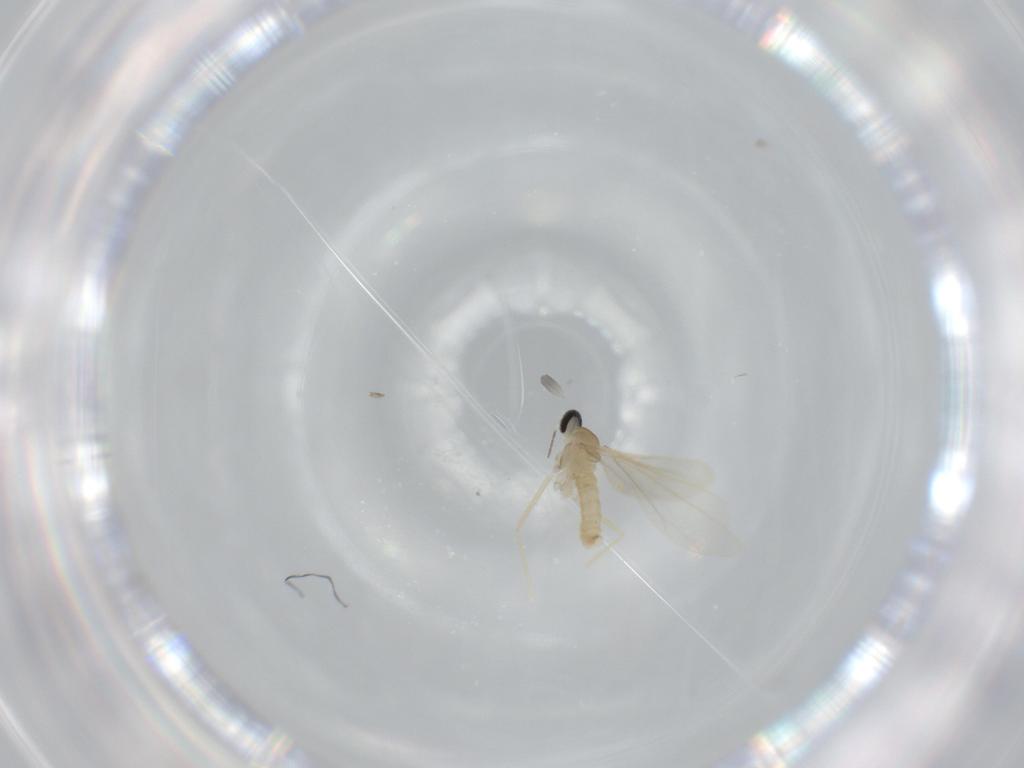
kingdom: Animalia
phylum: Arthropoda
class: Insecta
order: Diptera
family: Cecidomyiidae
